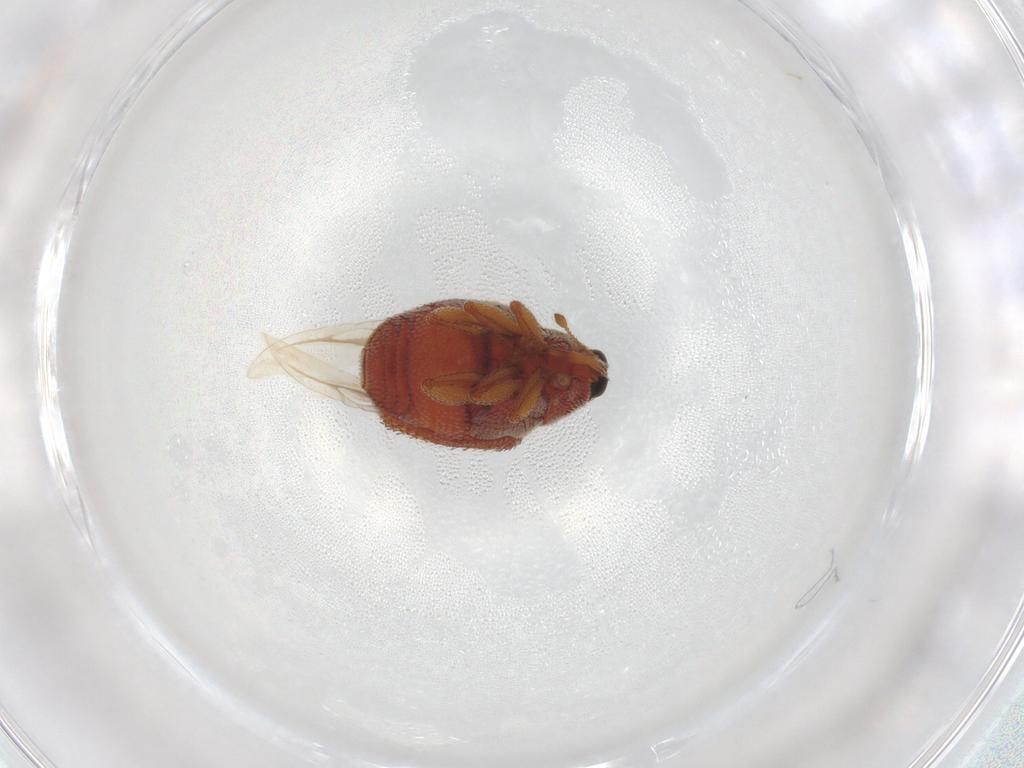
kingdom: Animalia
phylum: Arthropoda
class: Insecta
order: Coleoptera
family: Curculionidae
